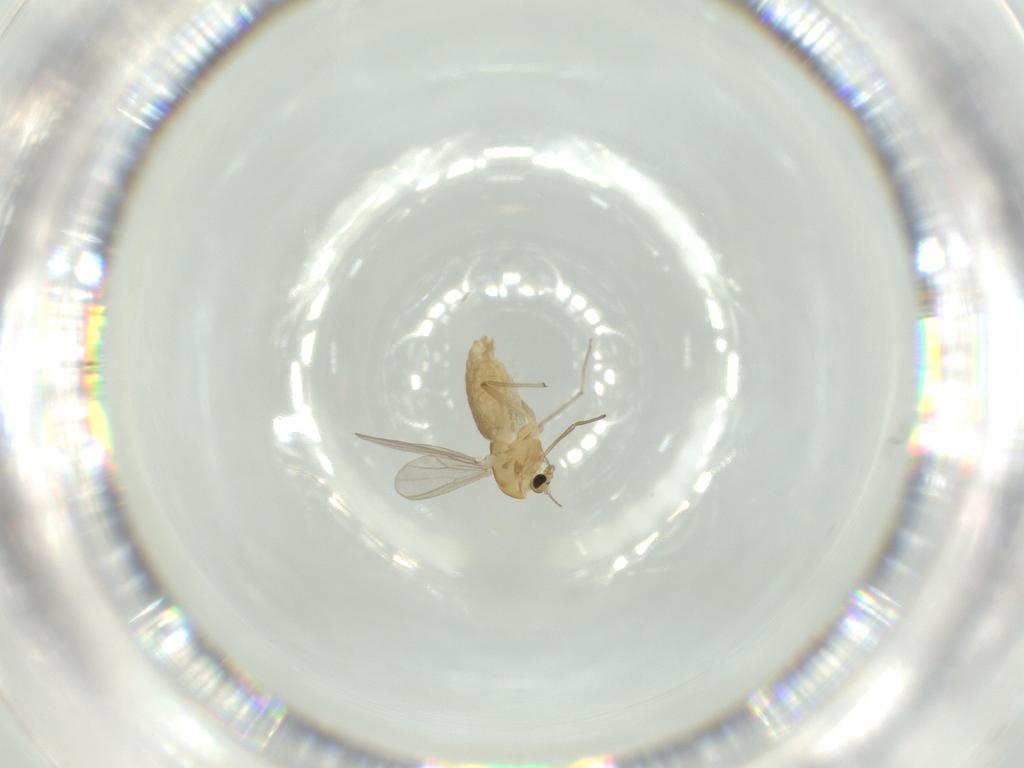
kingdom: Animalia
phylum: Arthropoda
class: Insecta
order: Diptera
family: Chironomidae
